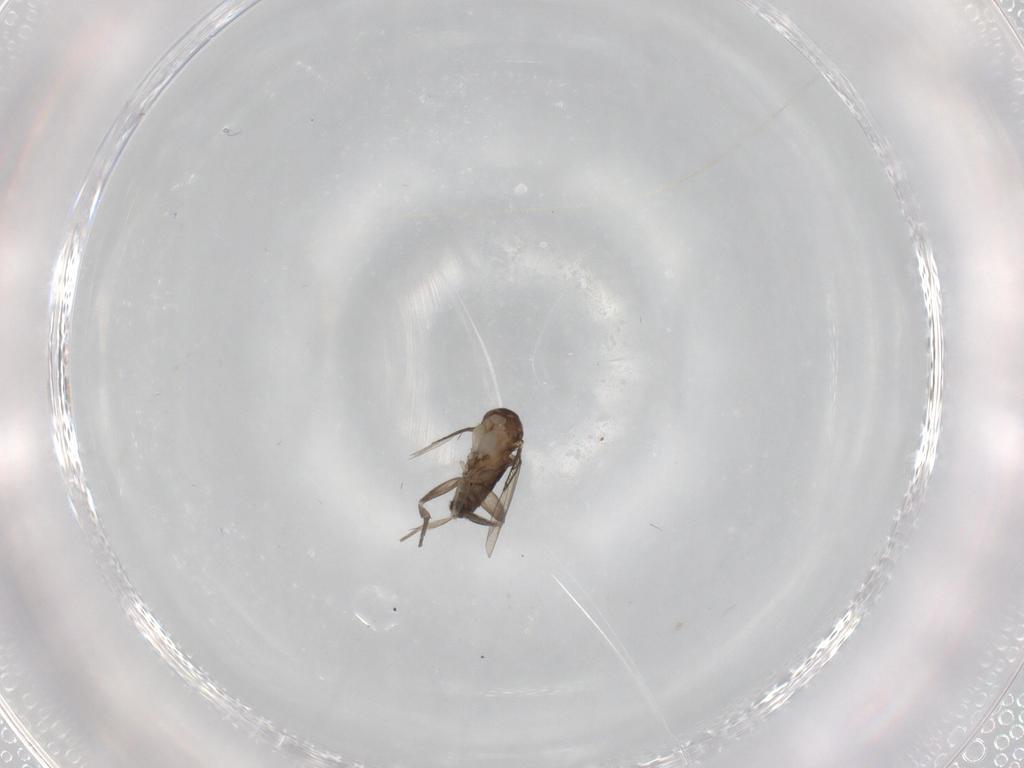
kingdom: Animalia
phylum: Arthropoda
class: Insecta
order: Diptera
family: Phoridae
